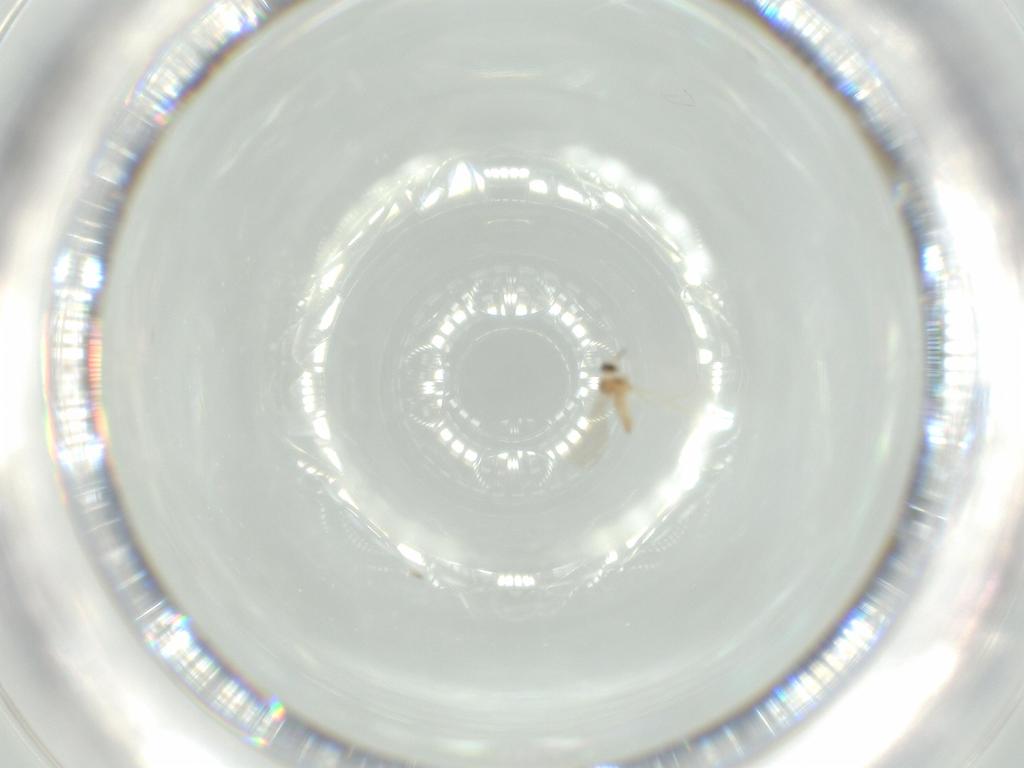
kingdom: Animalia
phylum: Arthropoda
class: Insecta
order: Diptera
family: Cecidomyiidae
